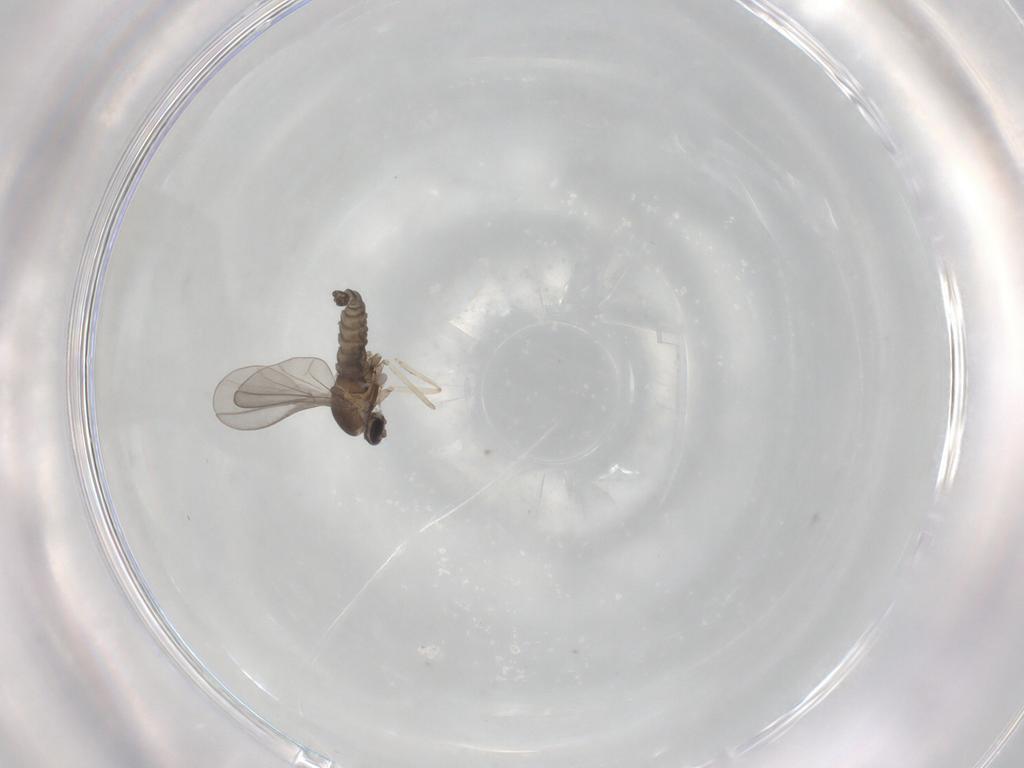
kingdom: Animalia
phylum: Arthropoda
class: Insecta
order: Diptera
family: Phoridae
